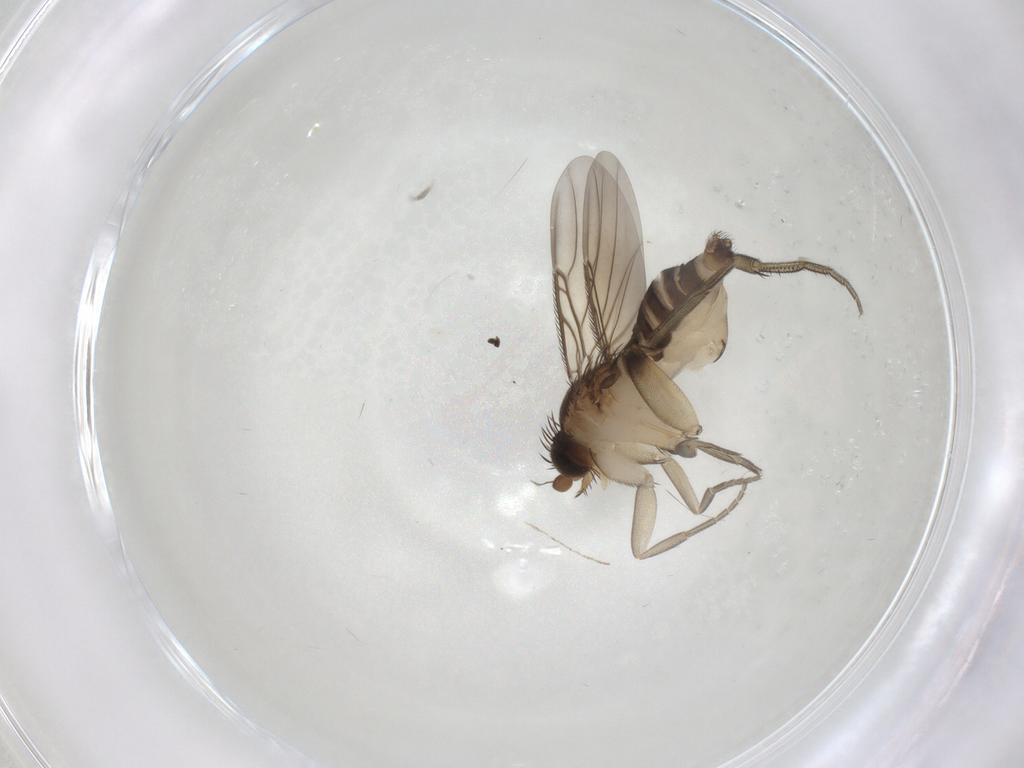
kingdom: Animalia
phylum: Arthropoda
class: Insecta
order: Diptera
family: Phoridae
